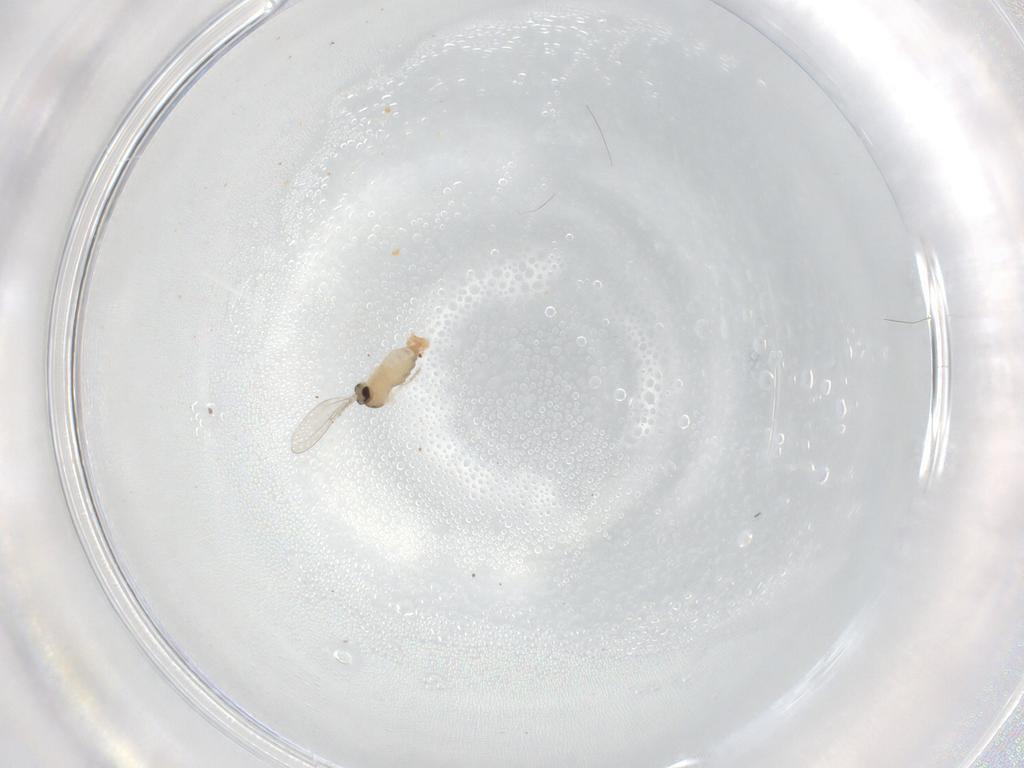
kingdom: Animalia
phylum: Arthropoda
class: Insecta
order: Diptera
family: Cecidomyiidae
